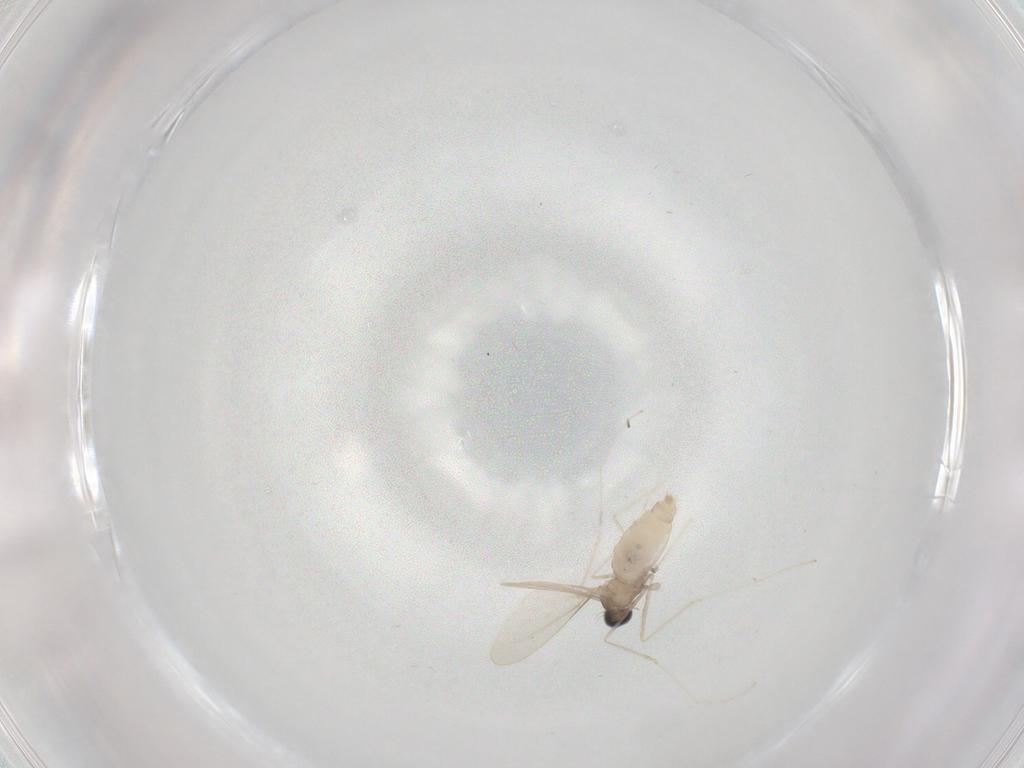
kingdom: Animalia
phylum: Arthropoda
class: Insecta
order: Diptera
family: Cecidomyiidae
